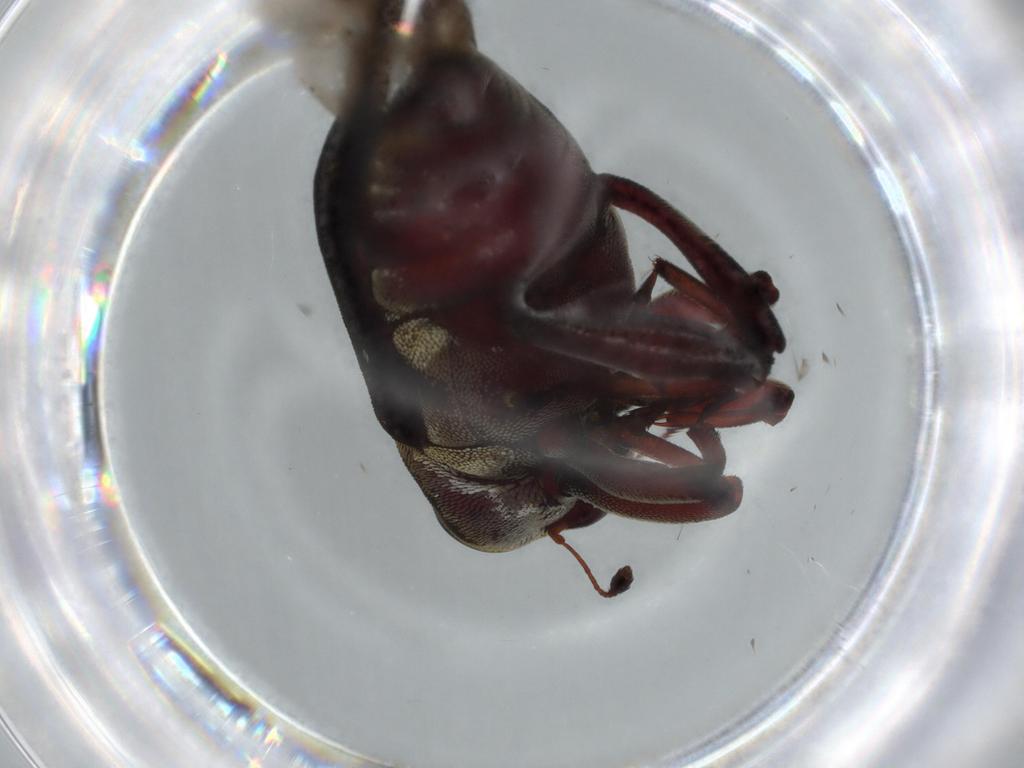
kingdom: Animalia
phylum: Arthropoda
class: Insecta
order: Coleoptera
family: Curculionidae
